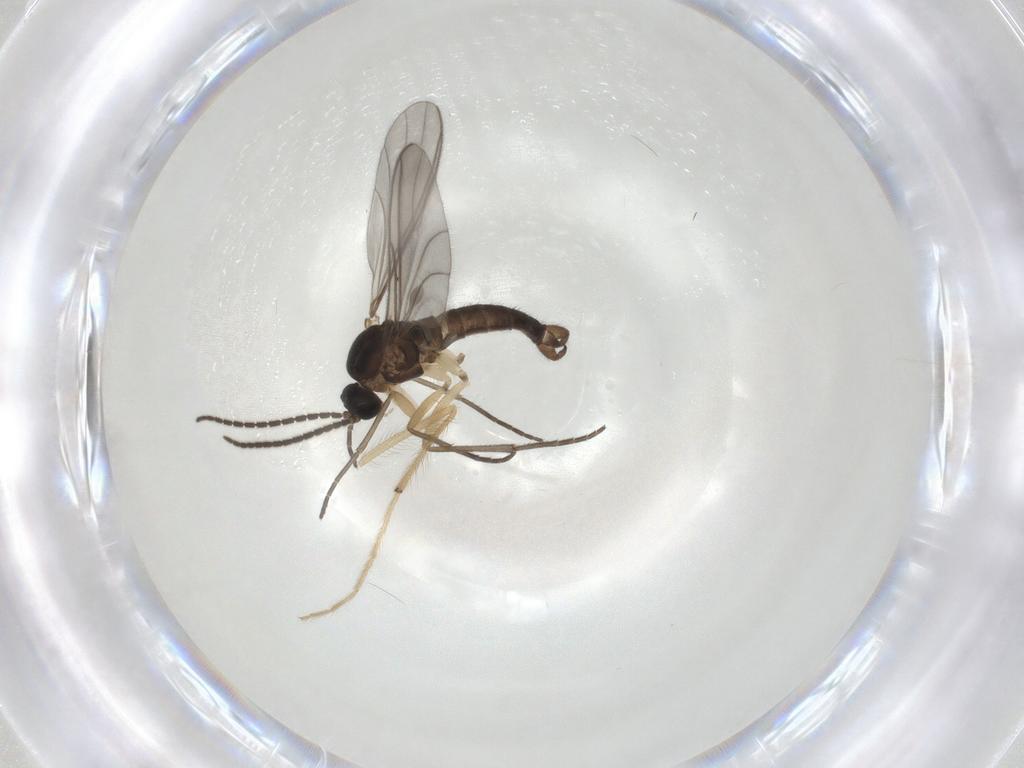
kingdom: Animalia
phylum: Arthropoda
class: Insecta
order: Diptera
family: Sciaridae
